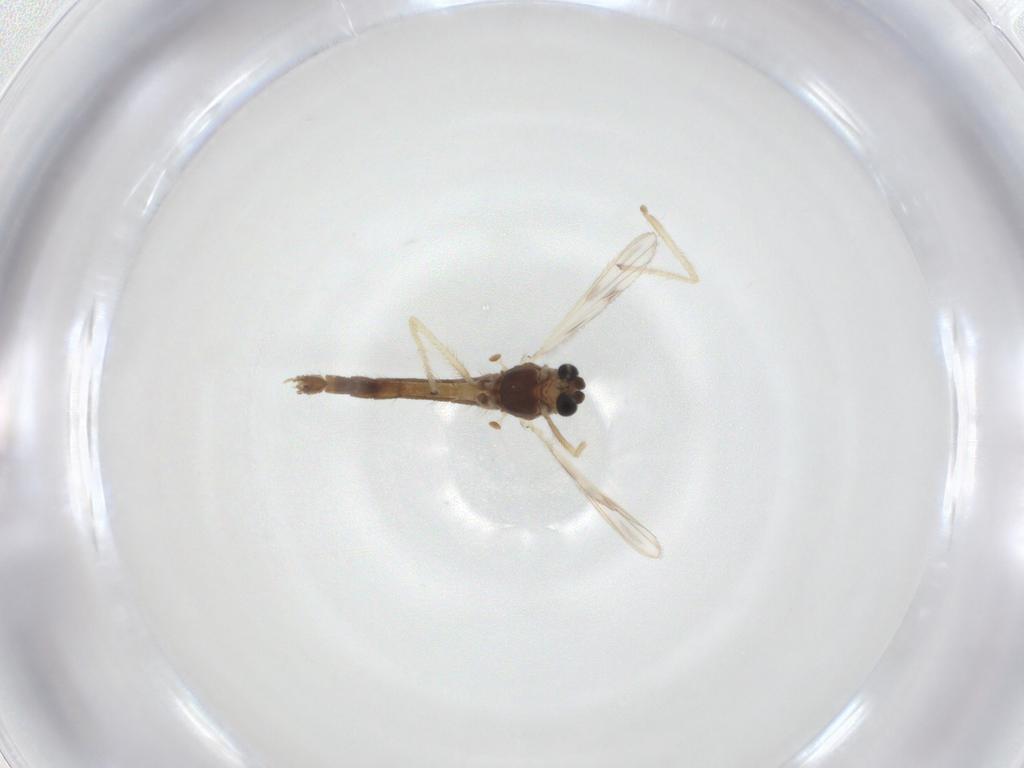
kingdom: Animalia
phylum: Arthropoda
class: Insecta
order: Diptera
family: Chironomidae
